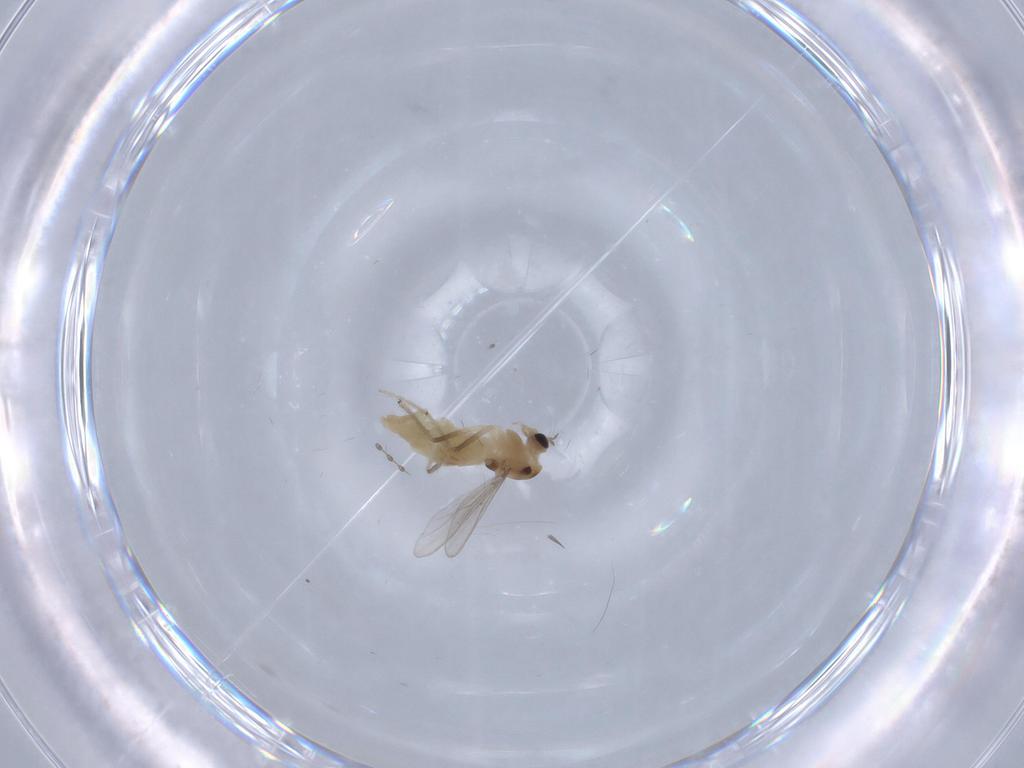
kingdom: Animalia
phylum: Arthropoda
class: Insecta
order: Diptera
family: Chironomidae
